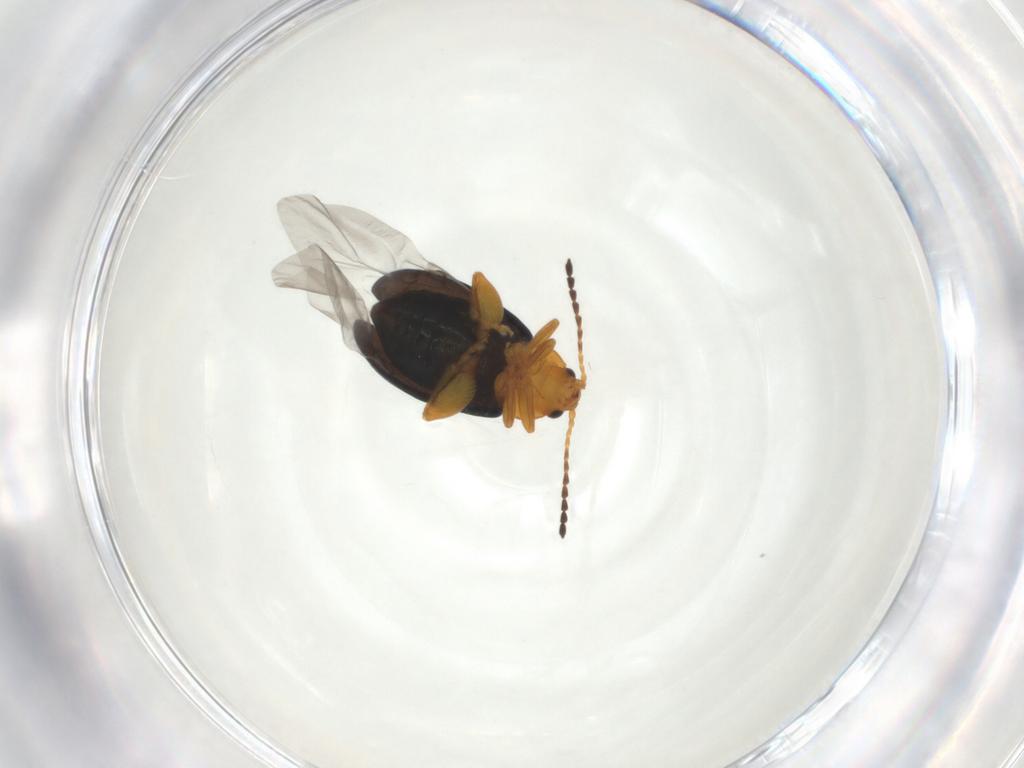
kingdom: Animalia
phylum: Arthropoda
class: Insecta
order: Coleoptera
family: Chrysomelidae
